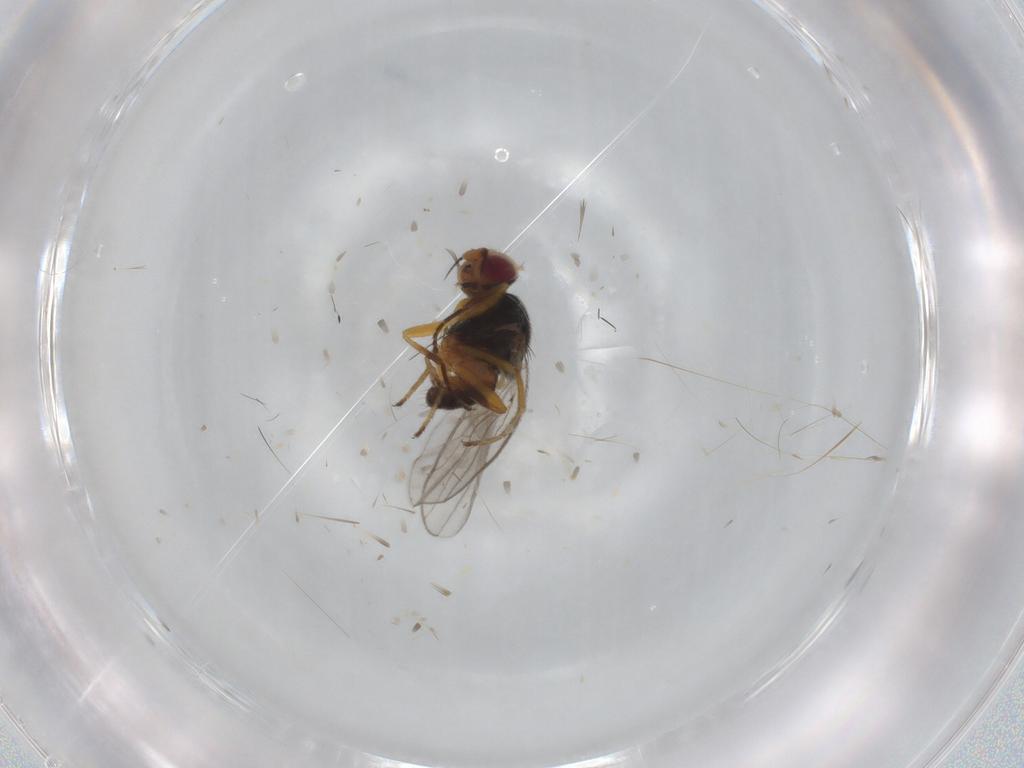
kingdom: Animalia
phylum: Arthropoda
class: Insecta
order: Diptera
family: Chloropidae
